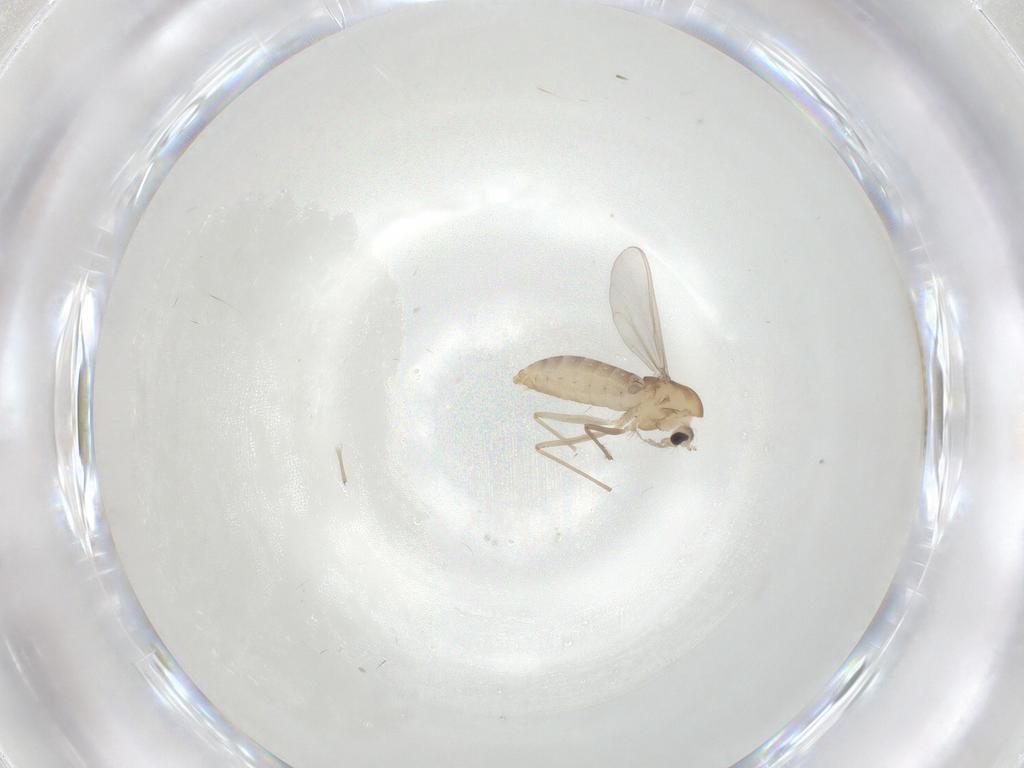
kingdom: Animalia
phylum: Arthropoda
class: Insecta
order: Diptera
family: Chironomidae
